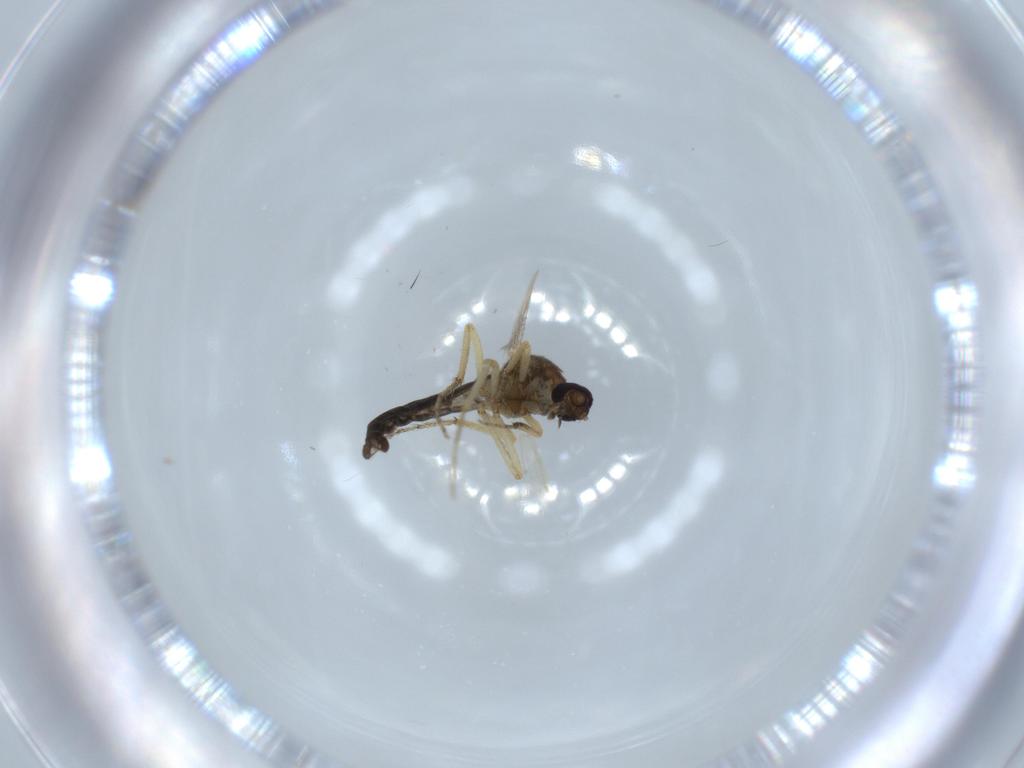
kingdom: Animalia
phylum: Arthropoda
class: Insecta
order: Diptera
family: Ceratopogonidae
